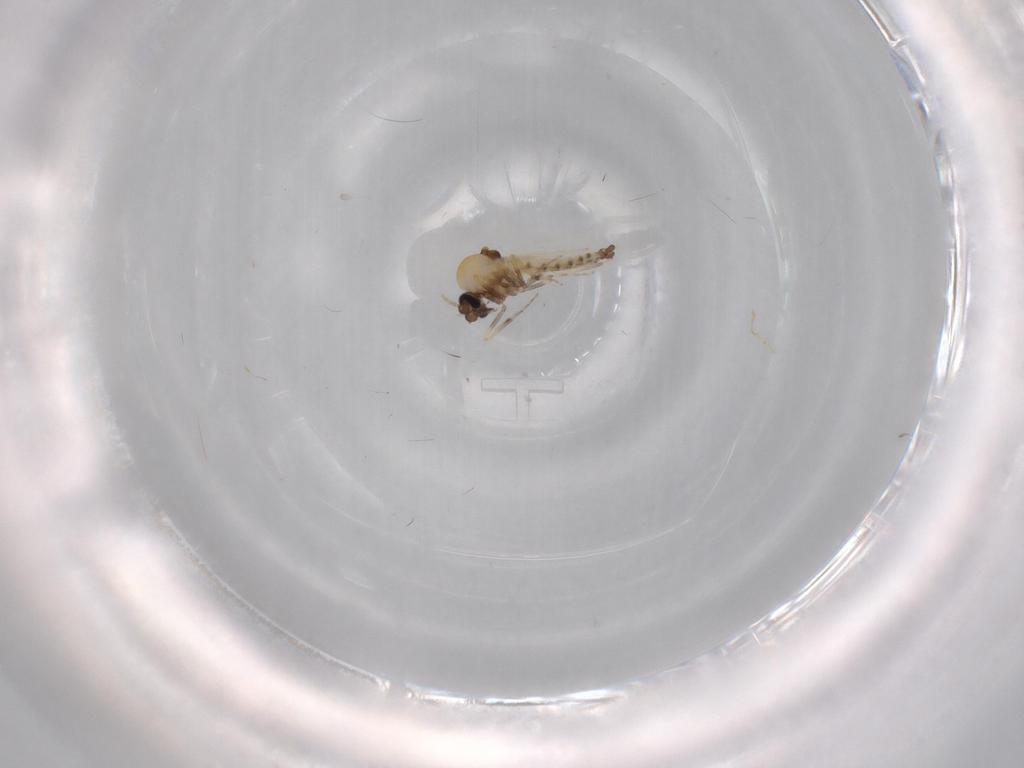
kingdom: Animalia
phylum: Arthropoda
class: Insecta
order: Diptera
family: Ceratopogonidae
